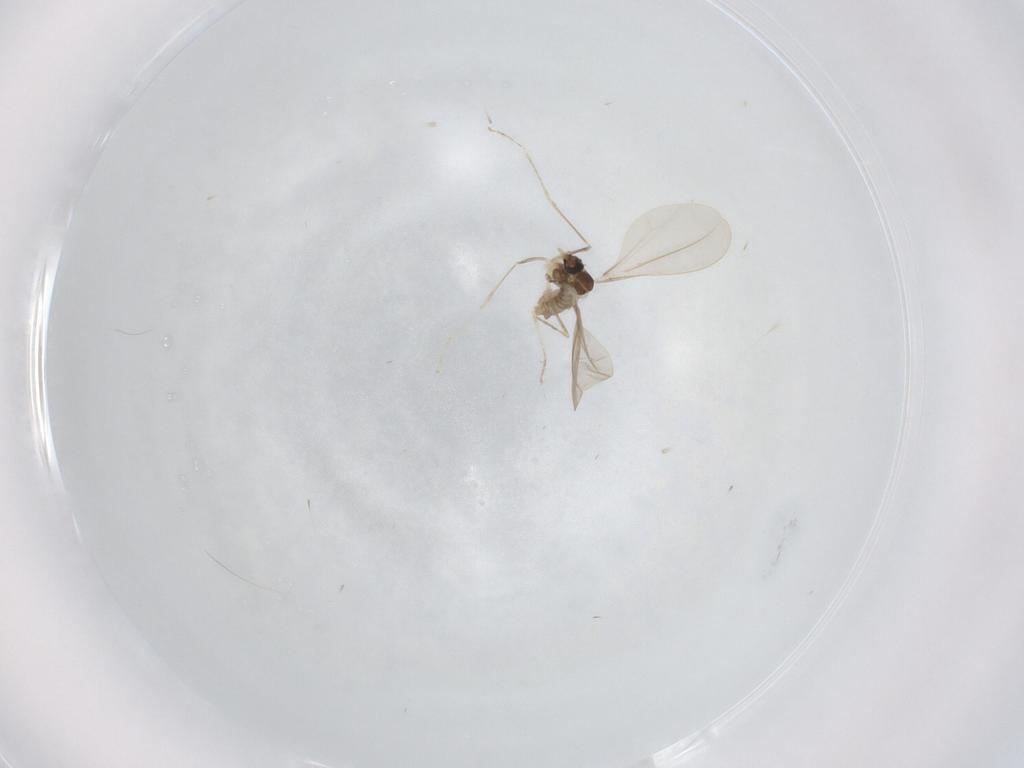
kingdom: Animalia
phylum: Arthropoda
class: Insecta
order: Diptera
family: Cecidomyiidae
